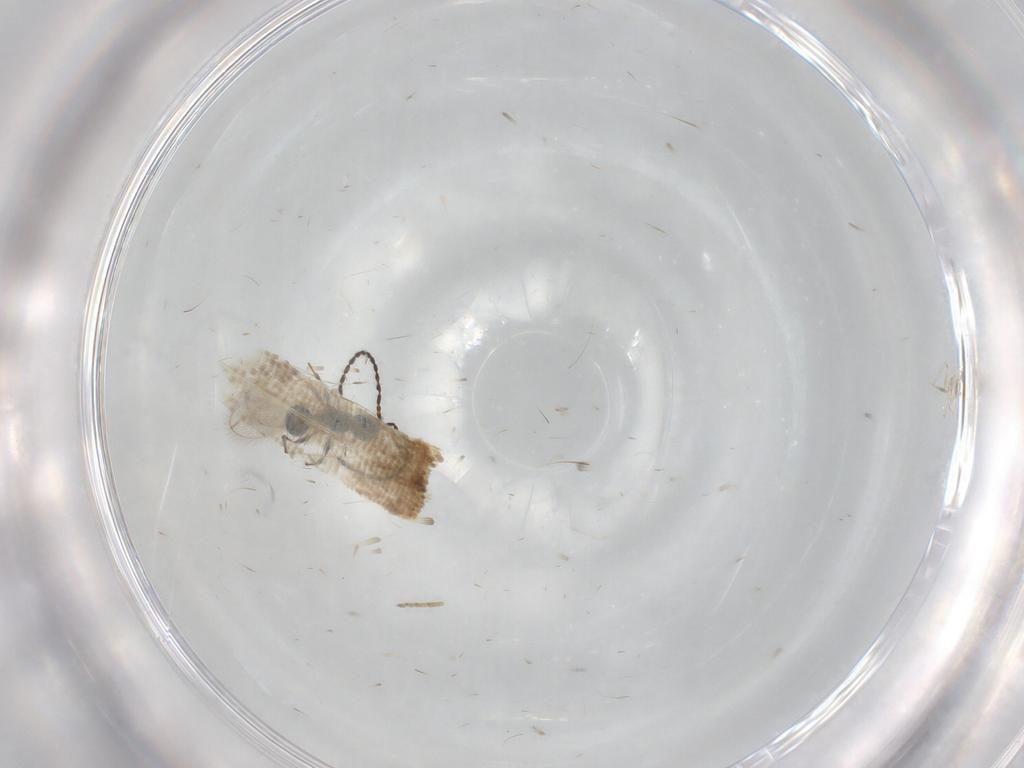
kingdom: Animalia
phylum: Arthropoda
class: Insecta
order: Hymenoptera
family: Diapriidae
